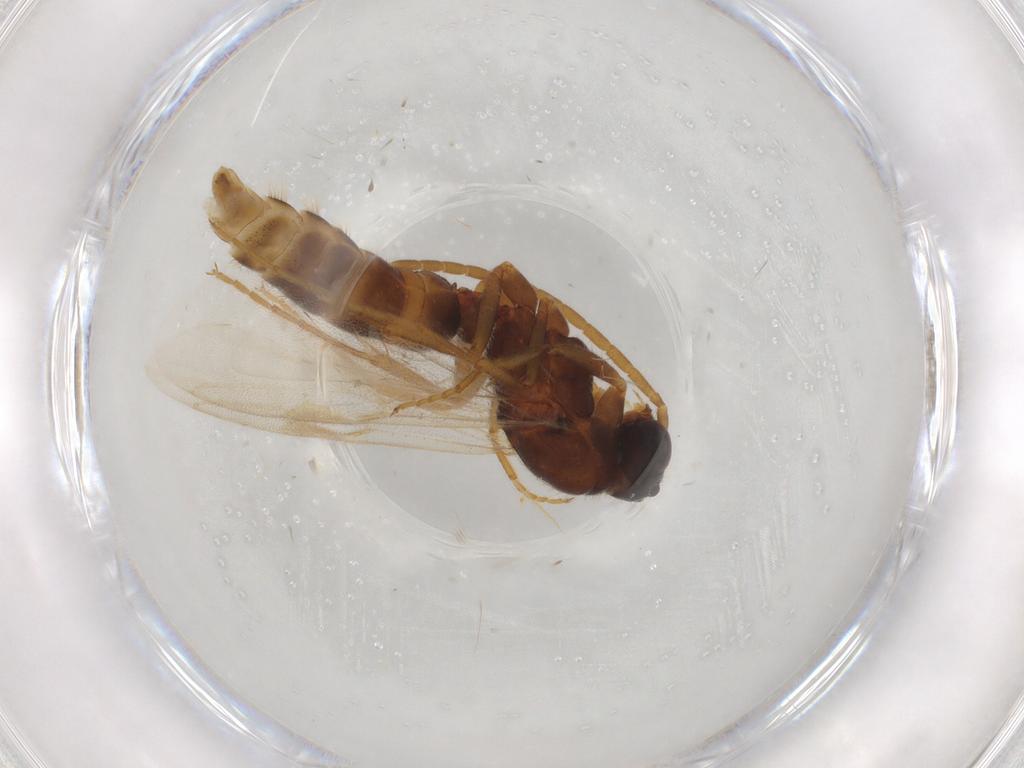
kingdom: Animalia
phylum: Arthropoda
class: Insecta
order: Hymenoptera
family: Formicidae
